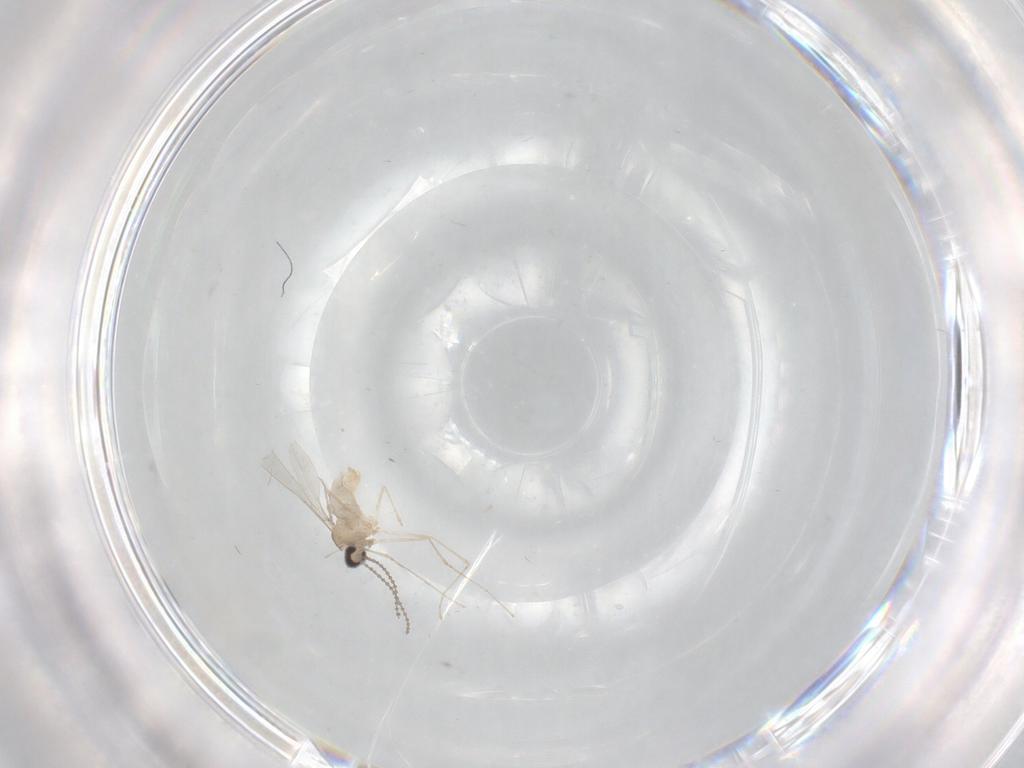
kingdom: Animalia
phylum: Arthropoda
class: Insecta
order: Diptera
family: Cecidomyiidae
